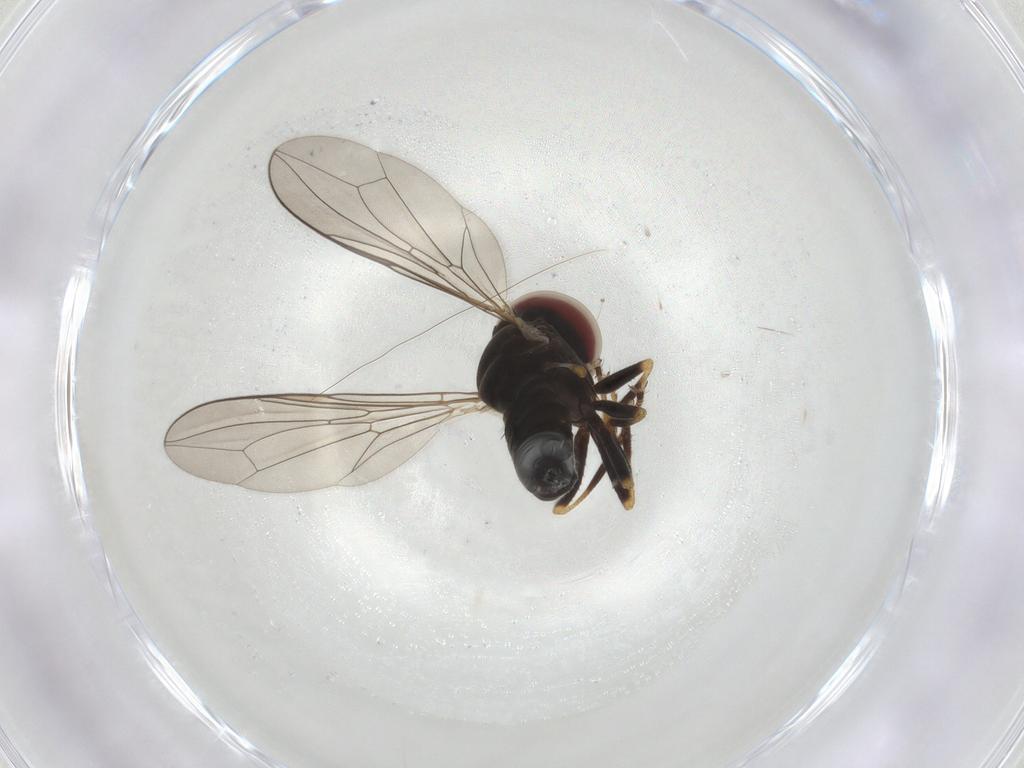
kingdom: Animalia
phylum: Arthropoda
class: Insecta
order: Diptera
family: Pipunculidae
